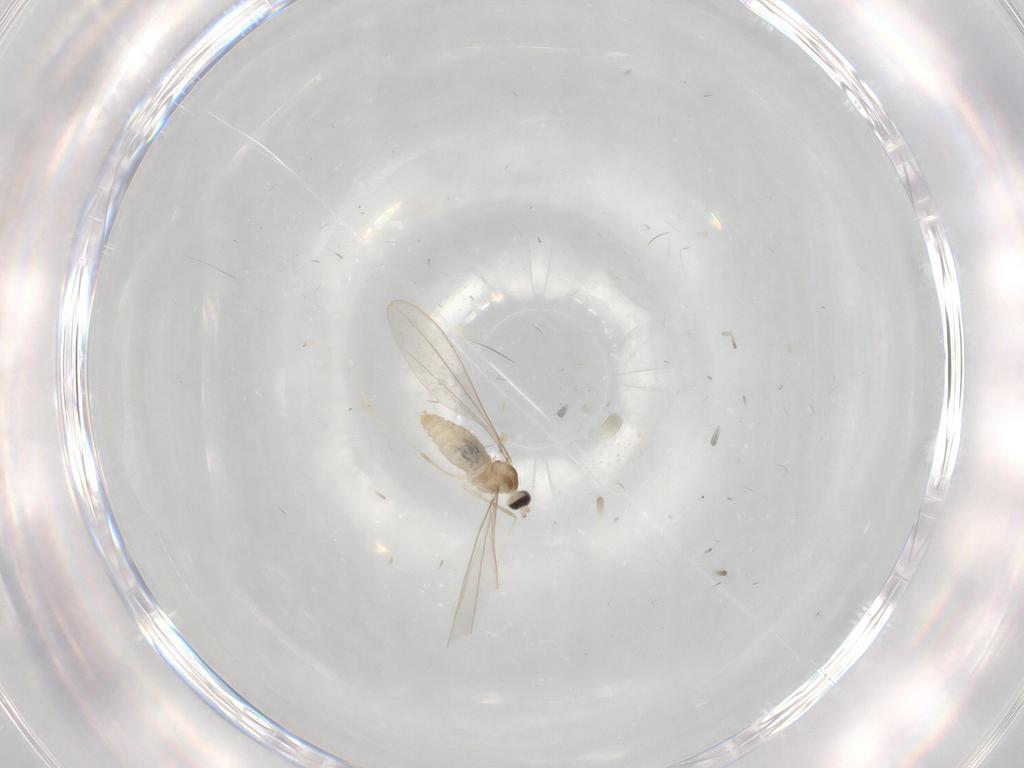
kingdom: Animalia
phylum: Arthropoda
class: Insecta
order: Diptera
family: Cecidomyiidae
